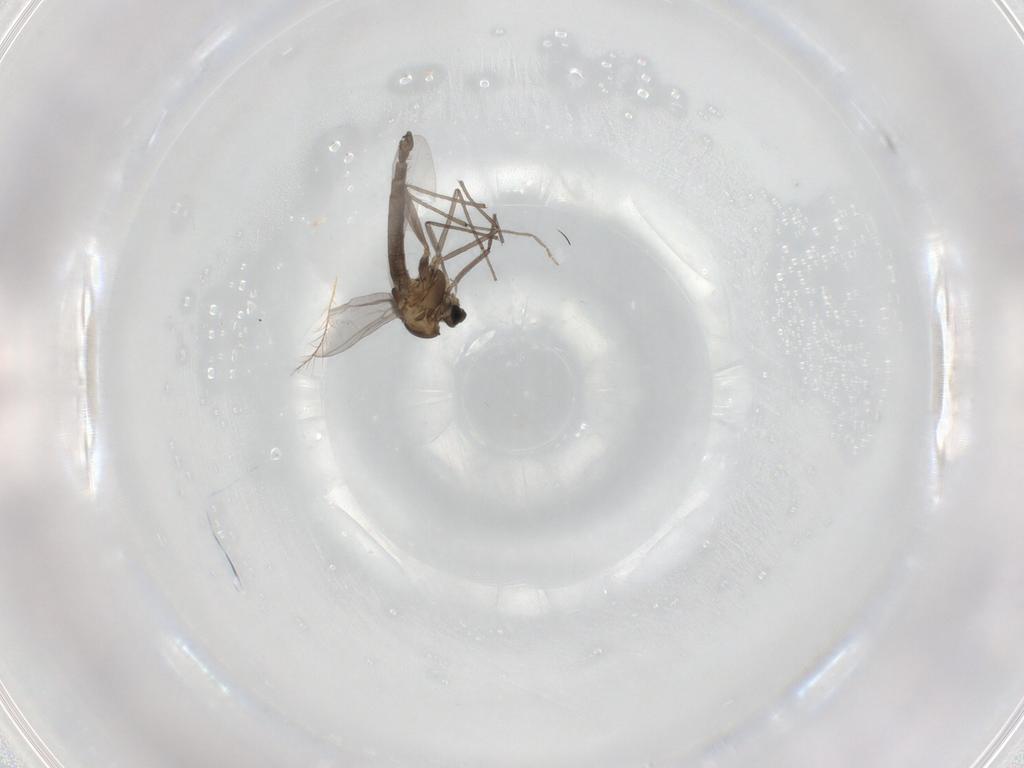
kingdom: Animalia
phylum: Arthropoda
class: Insecta
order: Diptera
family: Chironomidae
